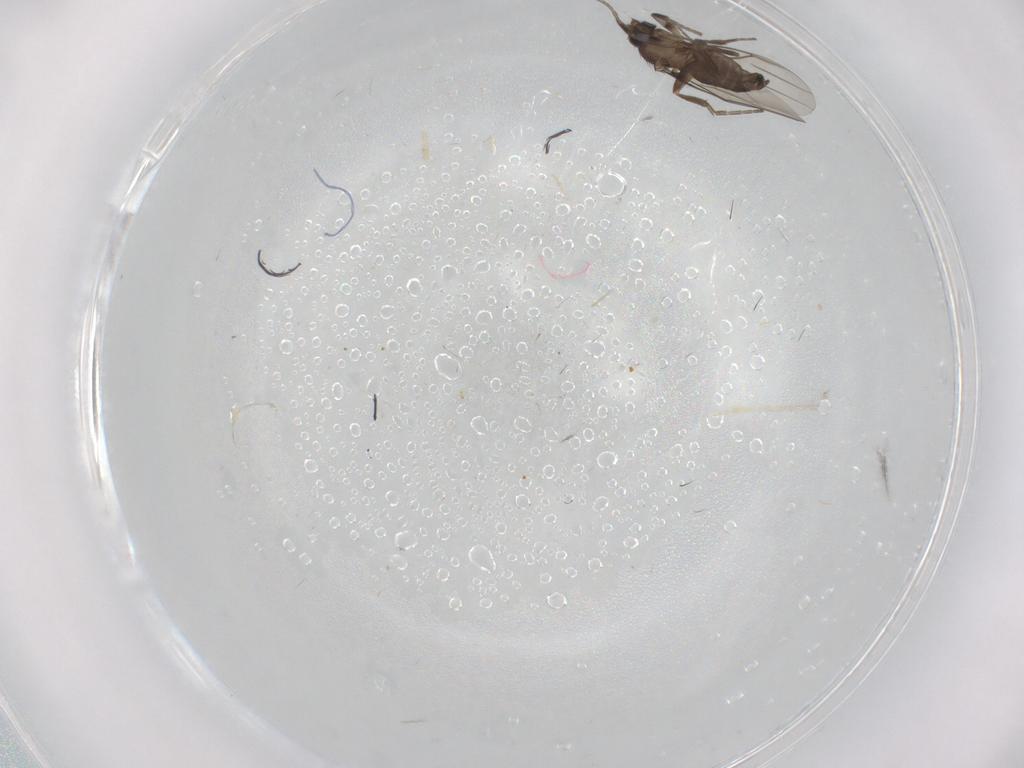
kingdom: Animalia
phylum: Arthropoda
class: Insecta
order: Diptera
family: Phoridae
